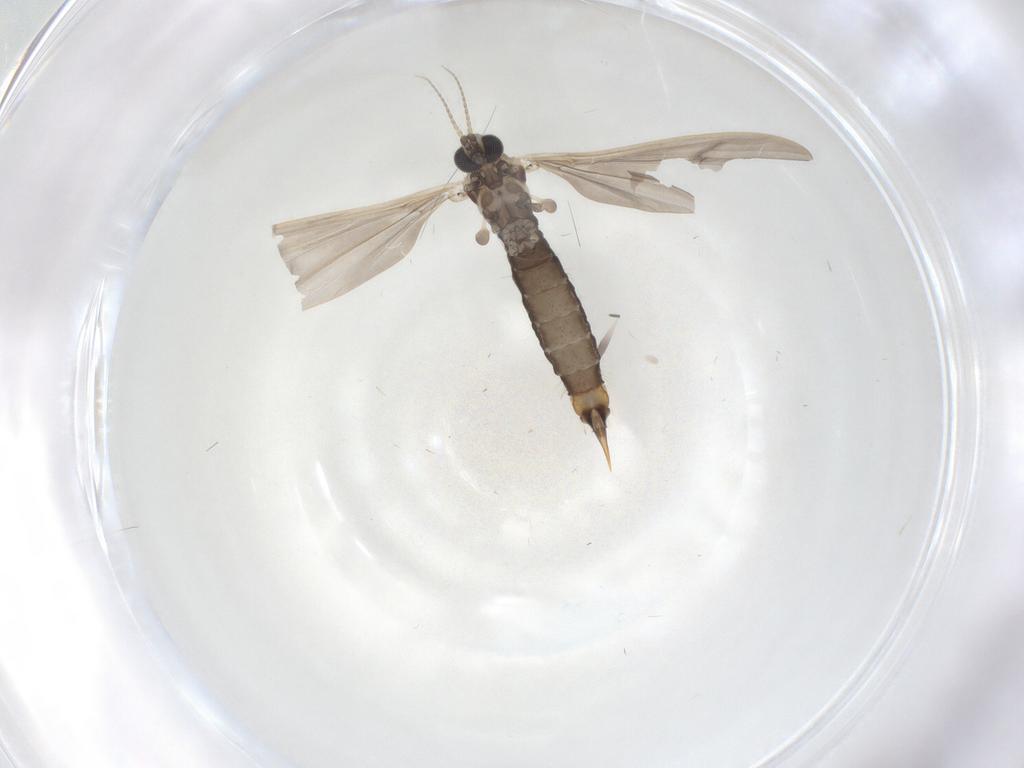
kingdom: Animalia
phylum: Arthropoda
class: Insecta
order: Diptera
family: Limoniidae
